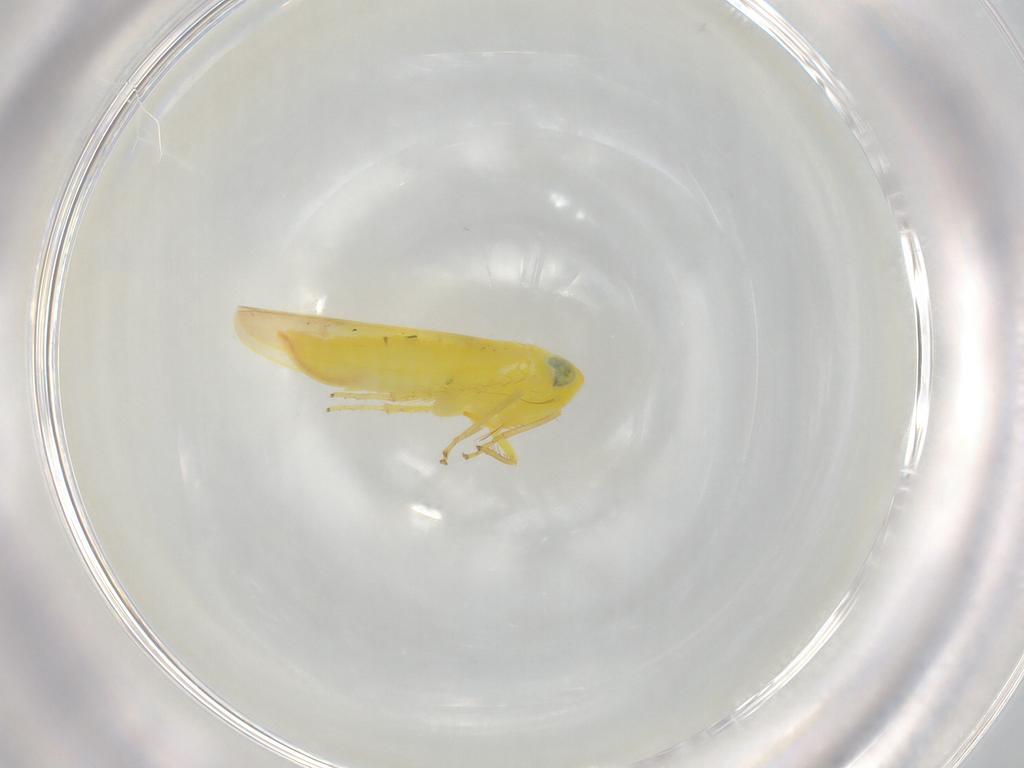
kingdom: Animalia
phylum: Arthropoda
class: Insecta
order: Hemiptera
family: Cicadellidae
